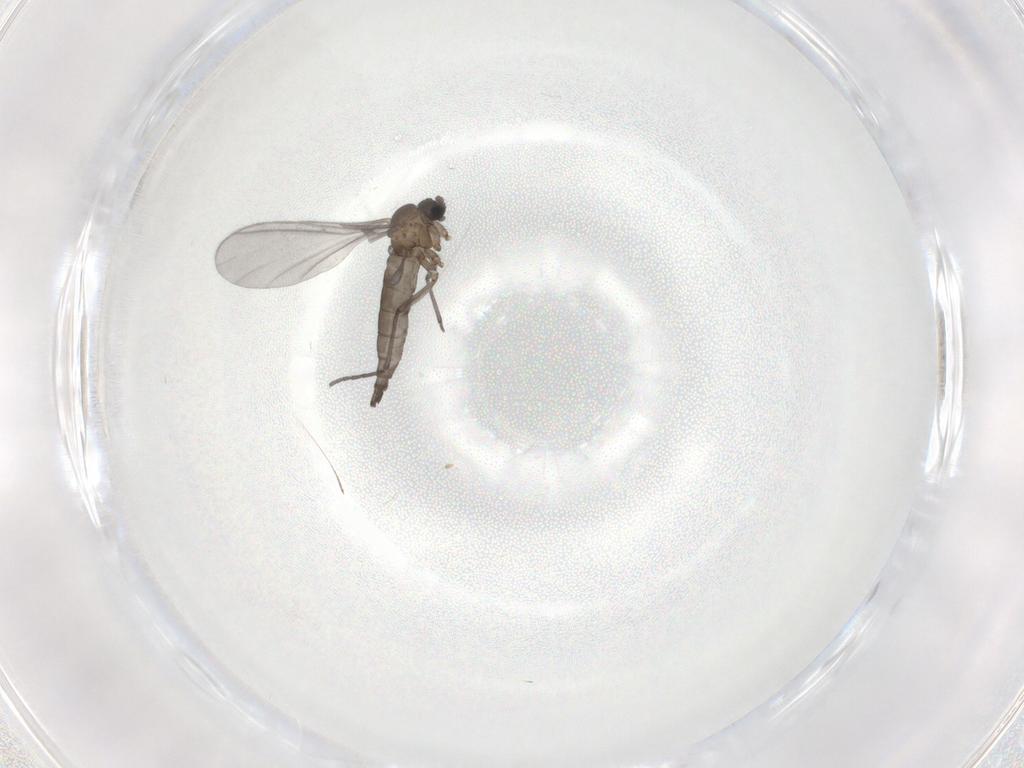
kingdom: Animalia
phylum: Arthropoda
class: Insecta
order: Diptera
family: Sciaridae
